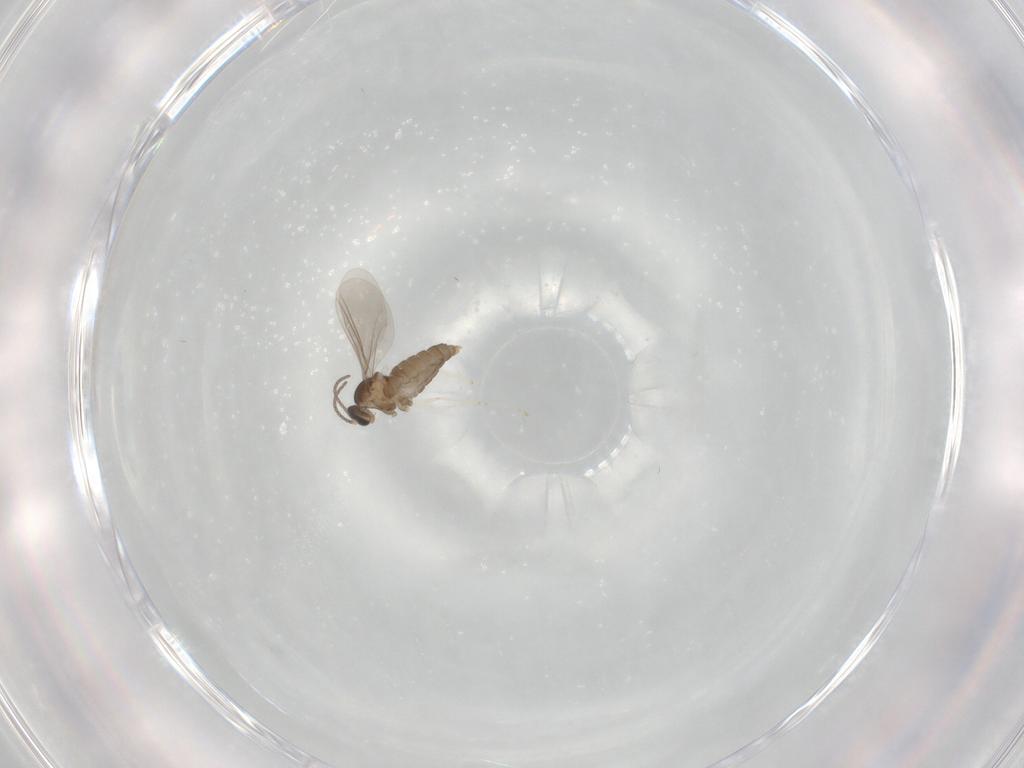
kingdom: Animalia
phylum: Arthropoda
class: Insecta
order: Diptera
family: Cecidomyiidae
